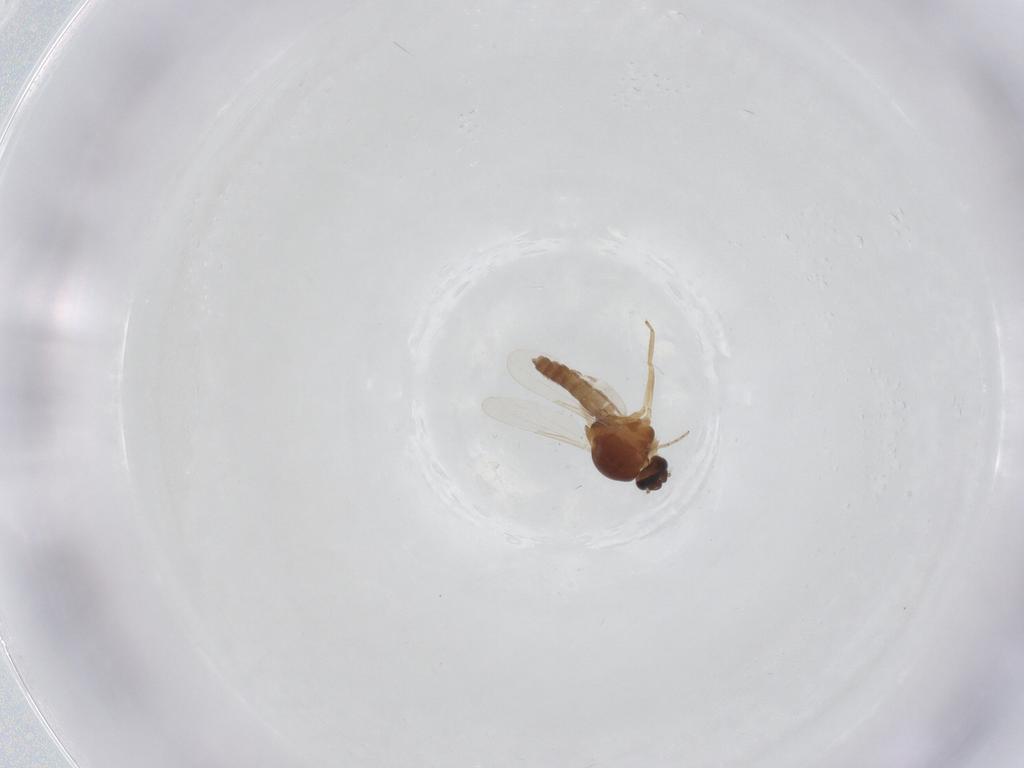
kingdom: Animalia
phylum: Arthropoda
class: Insecta
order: Diptera
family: Ceratopogonidae
